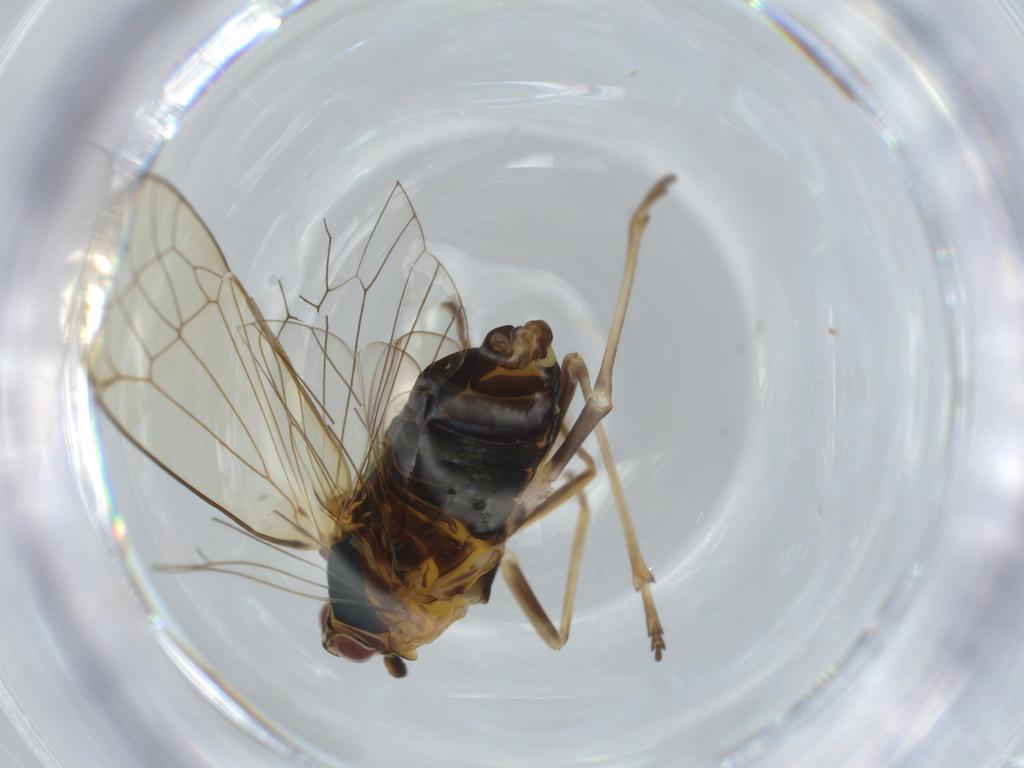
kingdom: Animalia
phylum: Arthropoda
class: Insecta
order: Hemiptera
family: Kinnaridae
